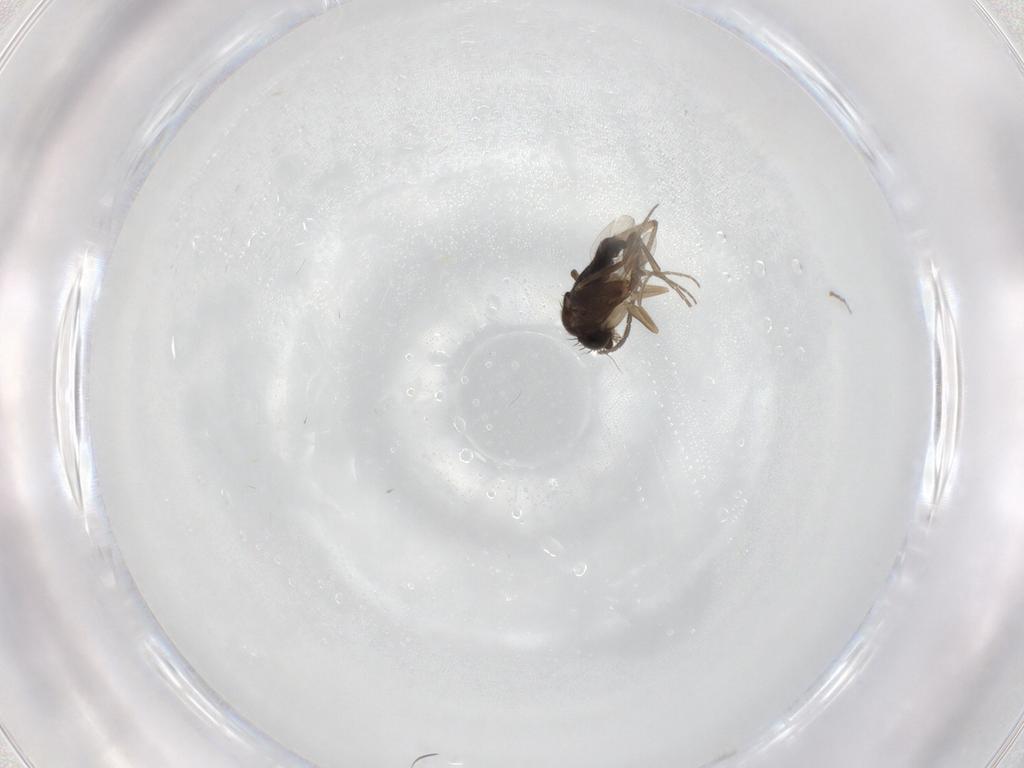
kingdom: Animalia
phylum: Arthropoda
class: Insecta
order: Diptera
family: Sciaridae
